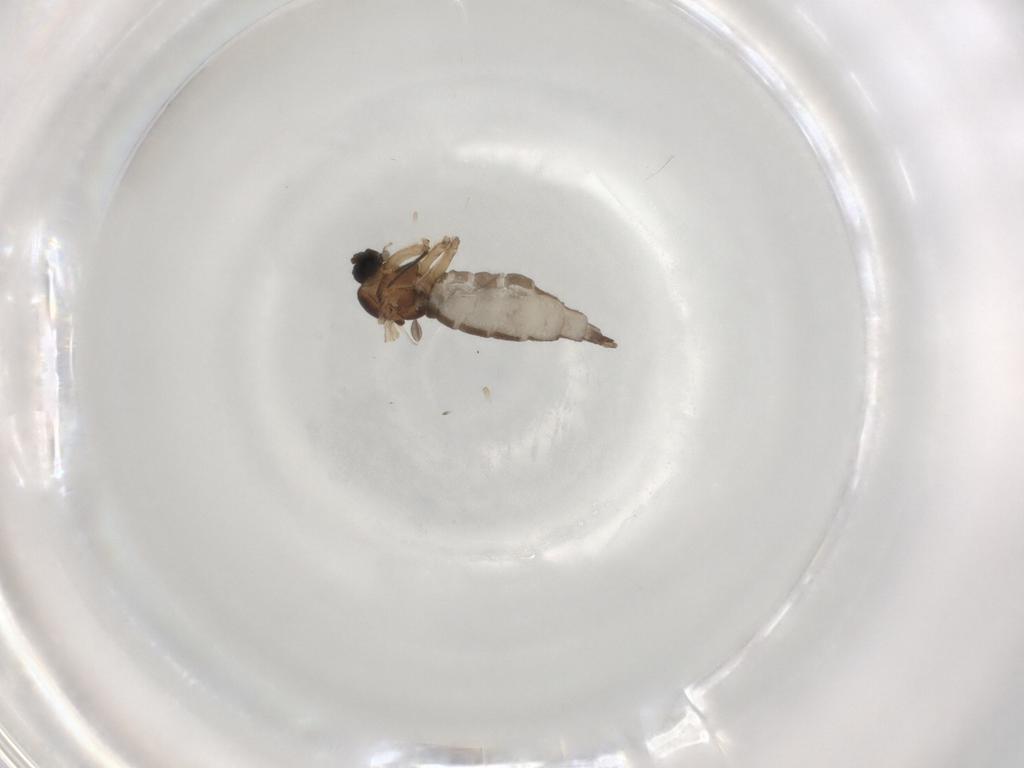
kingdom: Animalia
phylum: Arthropoda
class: Insecta
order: Diptera
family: Sciaridae
